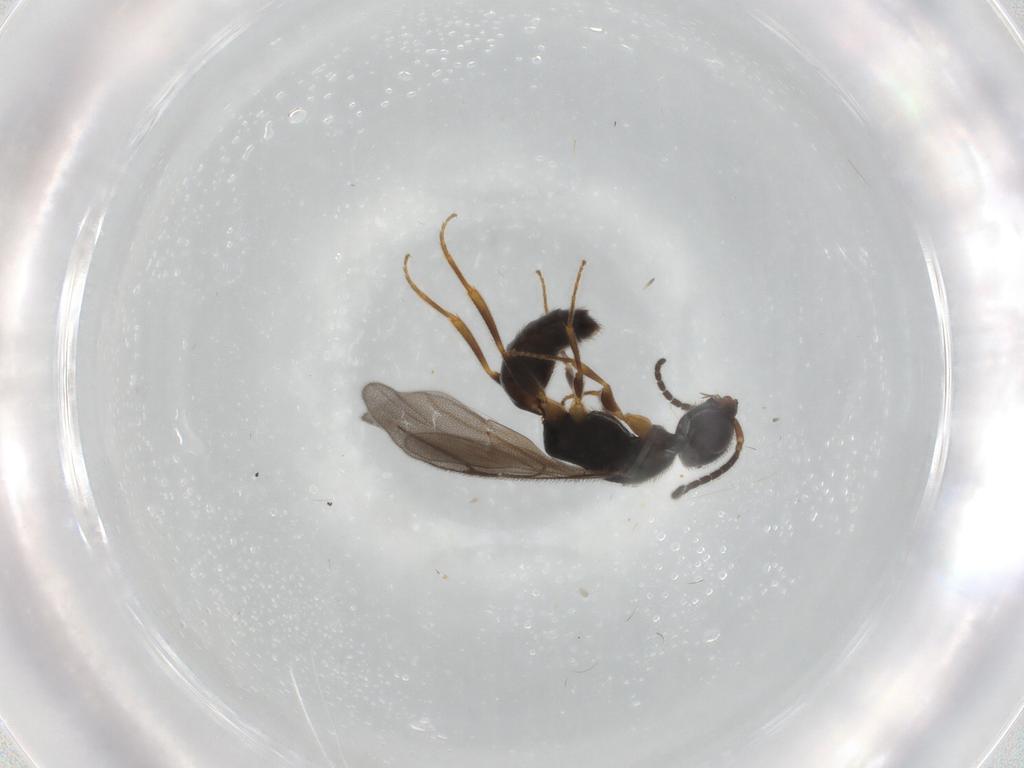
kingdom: Animalia
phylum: Arthropoda
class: Insecta
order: Hymenoptera
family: Bethylidae
